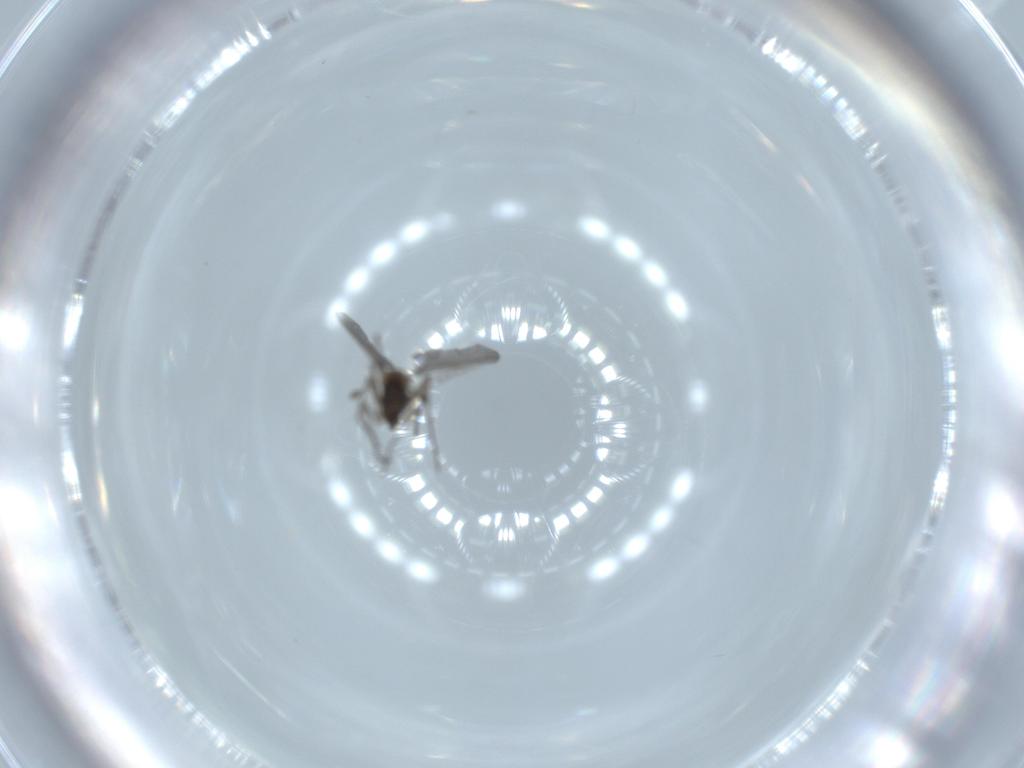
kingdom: Animalia
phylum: Arthropoda
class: Insecta
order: Diptera
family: Sciaridae
